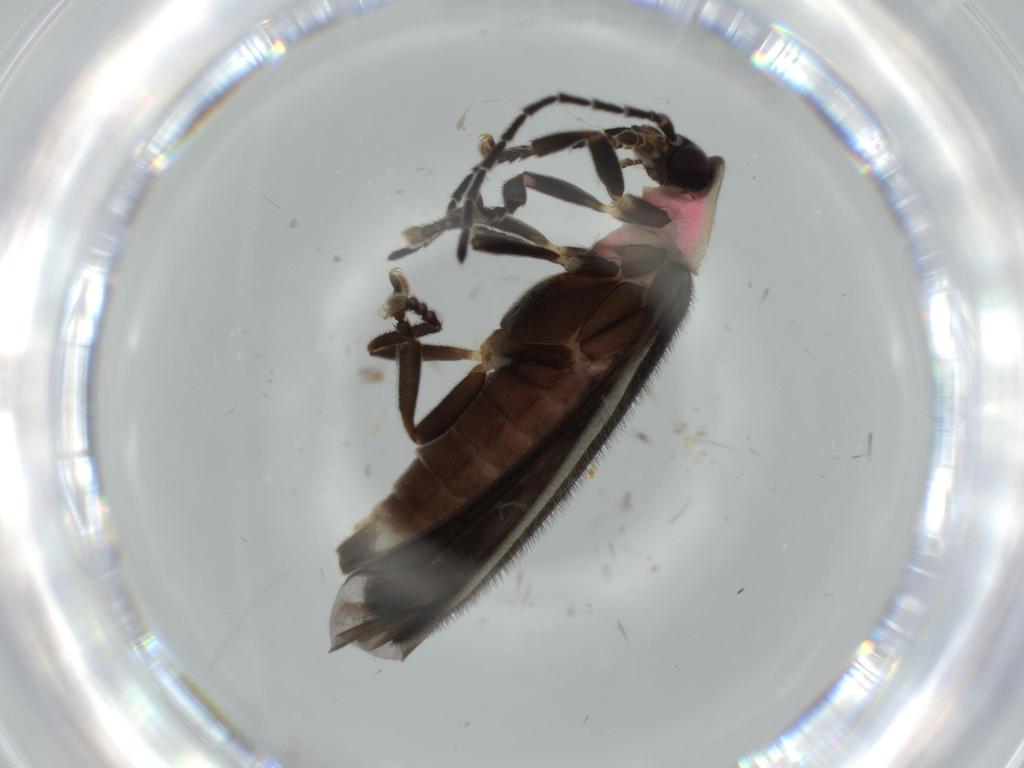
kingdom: Animalia
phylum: Arthropoda
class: Insecta
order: Coleoptera
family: Lampyridae
